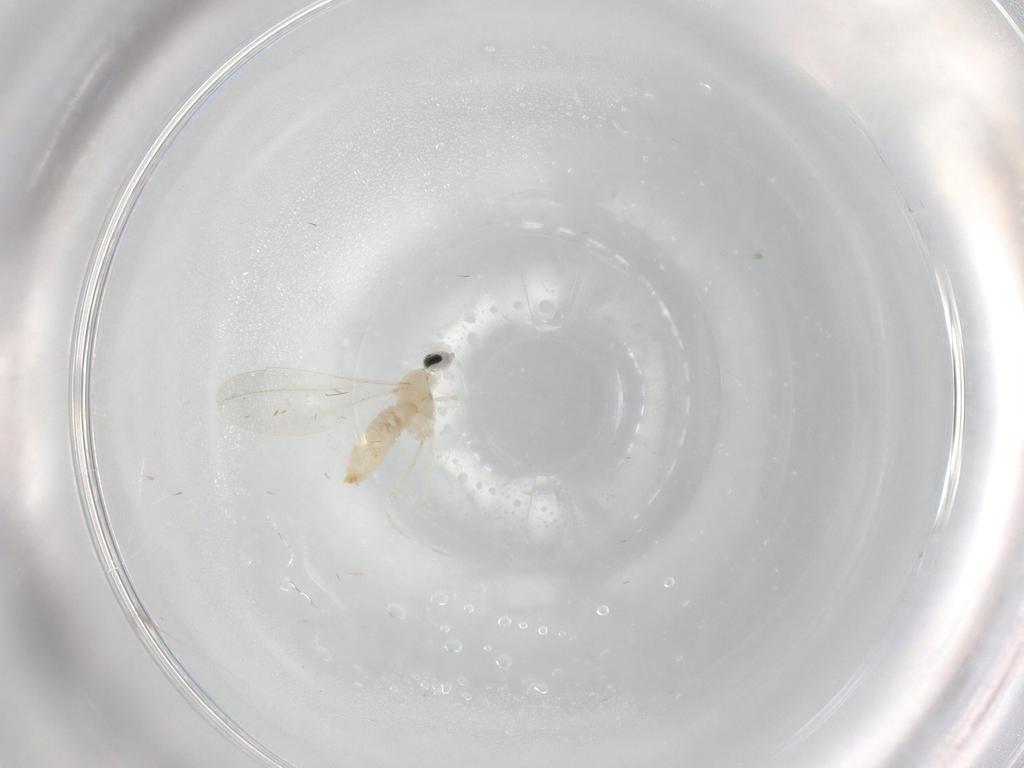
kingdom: Animalia
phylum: Arthropoda
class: Insecta
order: Diptera
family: Cecidomyiidae
